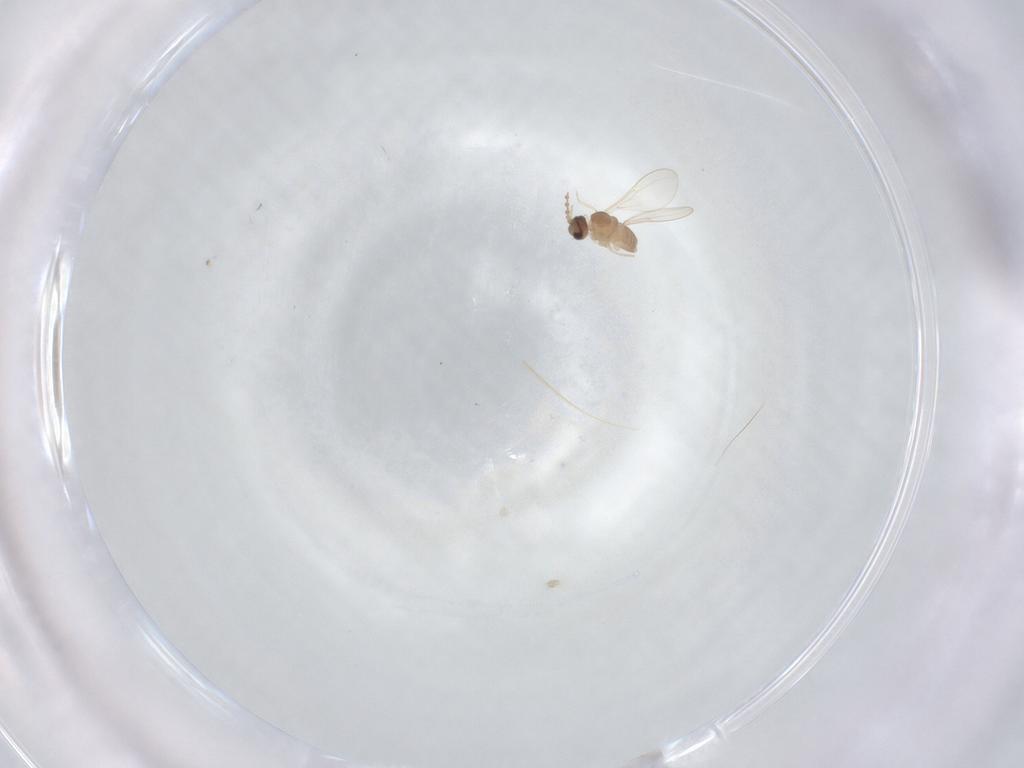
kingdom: Animalia
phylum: Arthropoda
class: Insecta
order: Diptera
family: Cecidomyiidae
